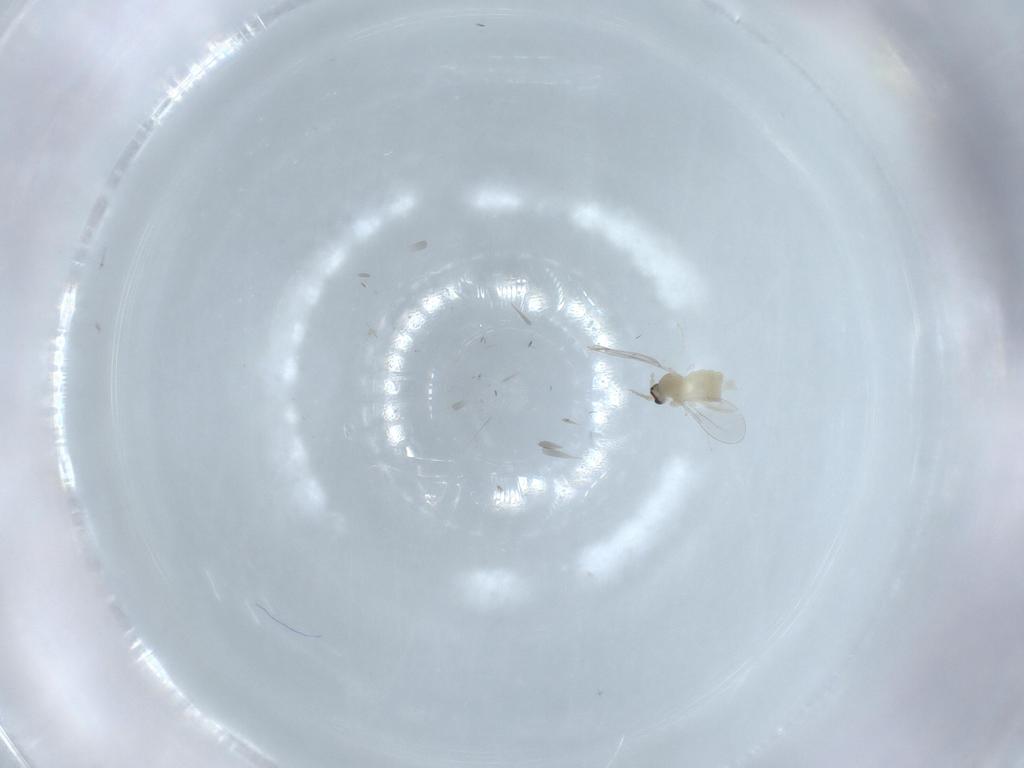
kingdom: Animalia
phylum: Arthropoda
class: Insecta
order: Diptera
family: Cecidomyiidae
